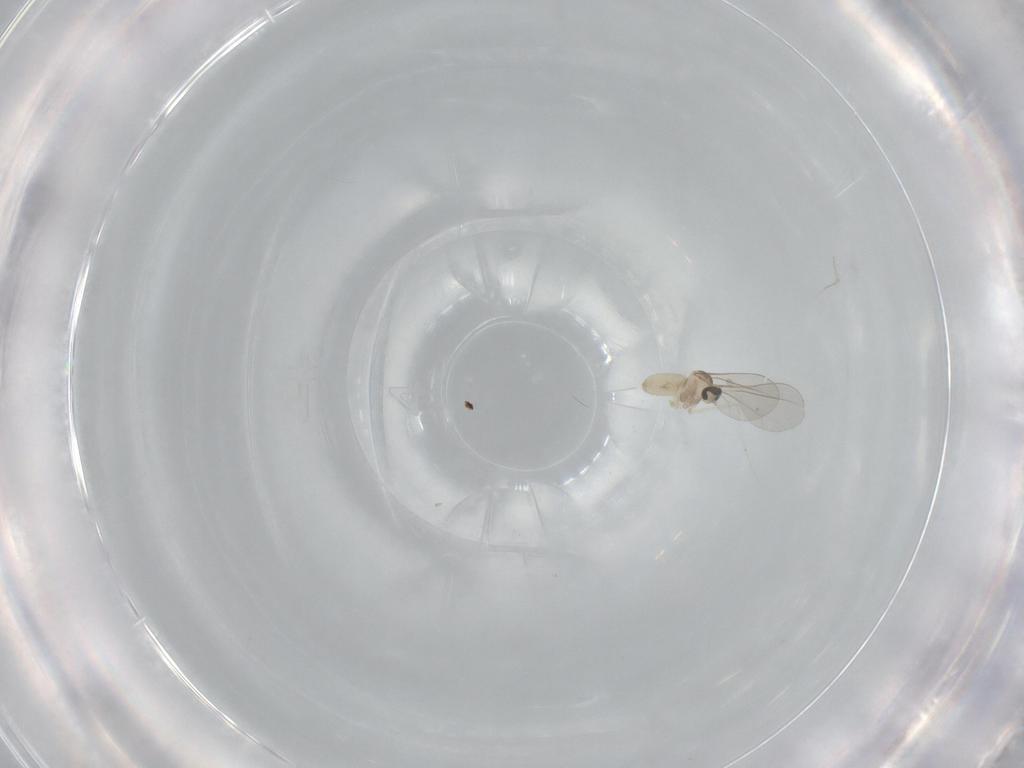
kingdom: Animalia
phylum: Arthropoda
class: Insecta
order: Diptera
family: Cecidomyiidae
